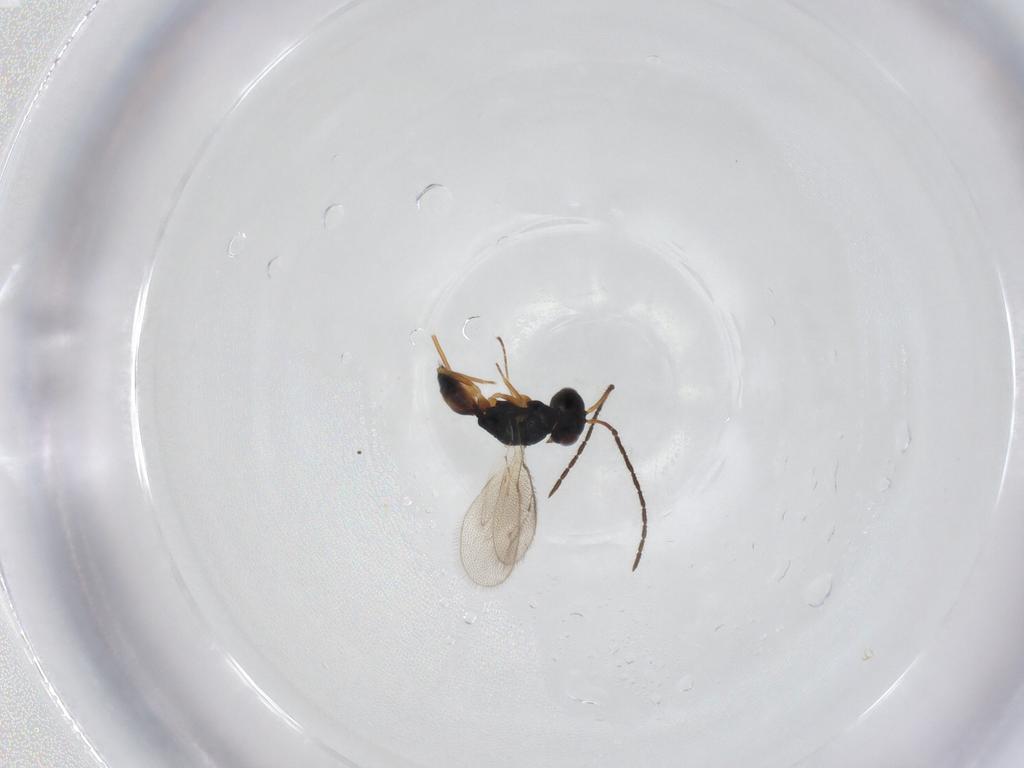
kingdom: Animalia
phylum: Arthropoda
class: Insecta
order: Hymenoptera
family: Pteromalidae
